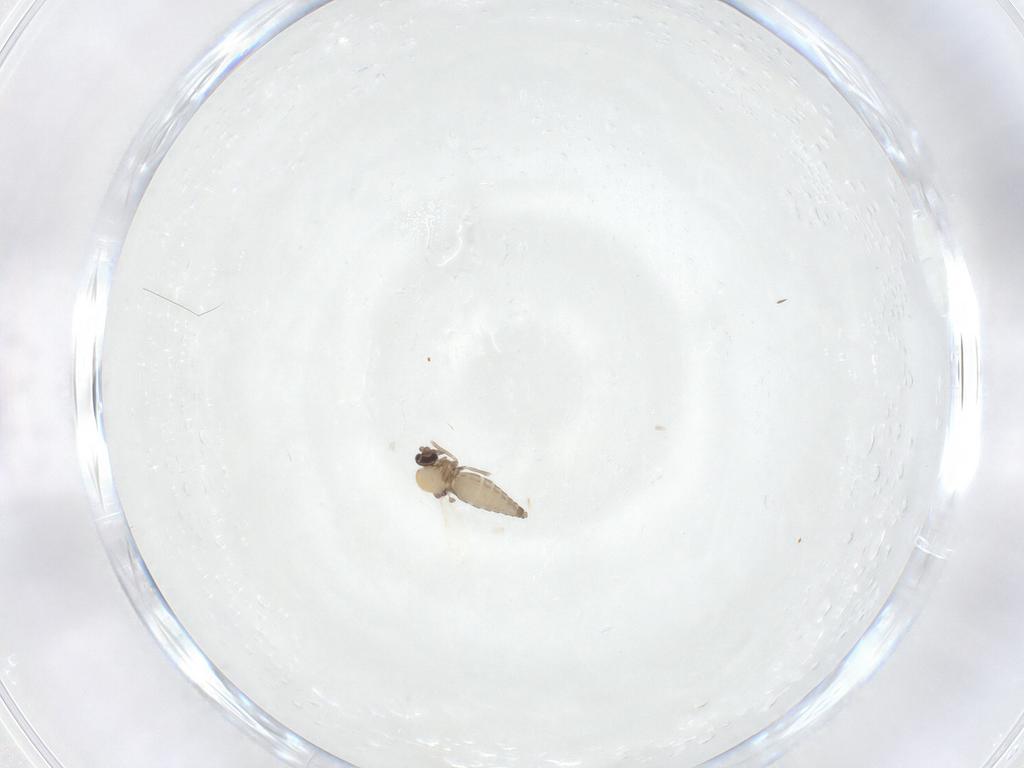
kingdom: Animalia
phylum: Arthropoda
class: Insecta
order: Diptera
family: Ceratopogonidae
